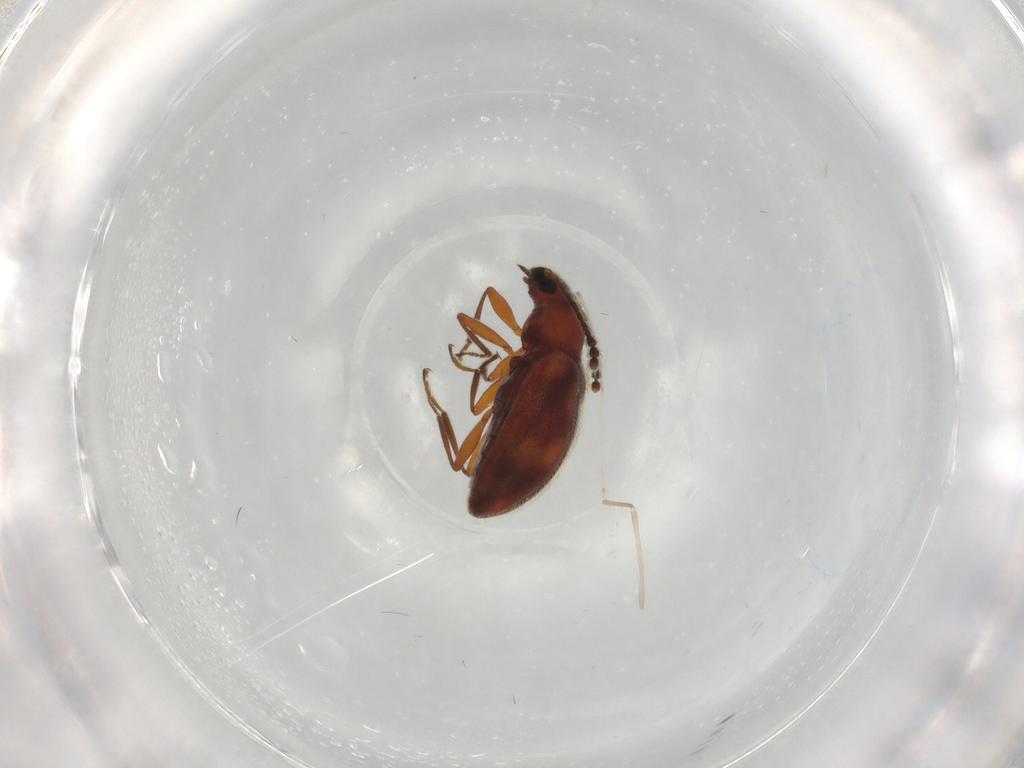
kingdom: Animalia
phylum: Arthropoda
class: Insecta
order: Coleoptera
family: Erotylidae
